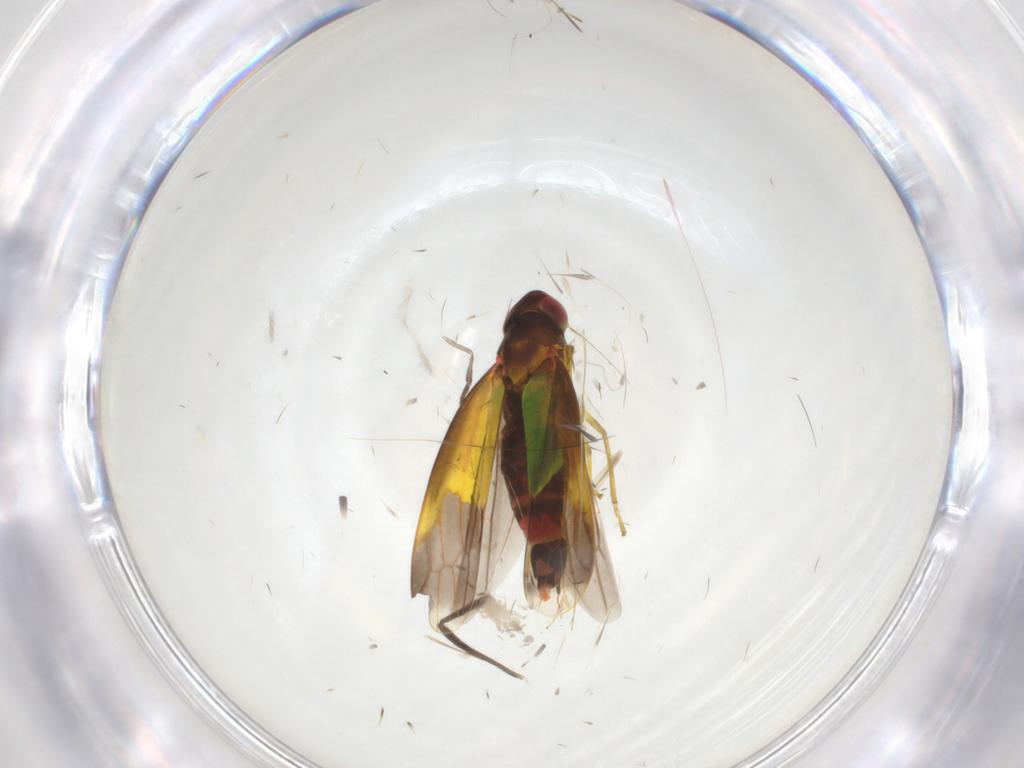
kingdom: Animalia
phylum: Arthropoda
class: Insecta
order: Hemiptera
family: Cicadellidae
